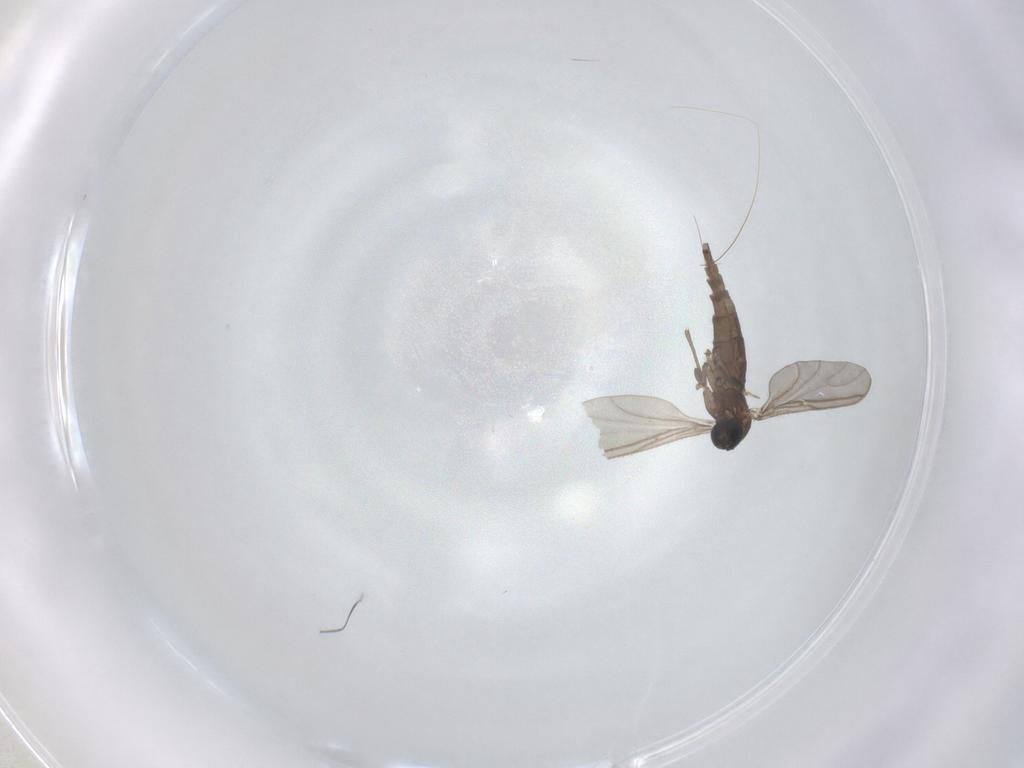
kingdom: Animalia
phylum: Arthropoda
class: Insecta
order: Diptera
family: Sciaridae
